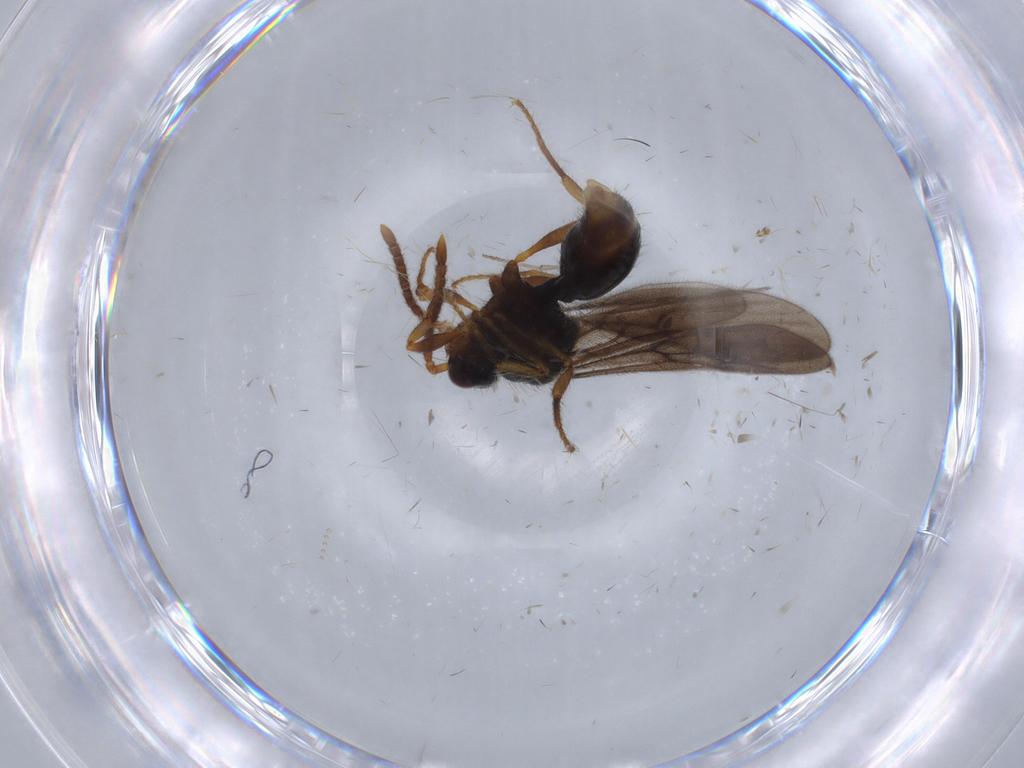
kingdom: Animalia
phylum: Arthropoda
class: Insecta
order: Hymenoptera
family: Formicidae
